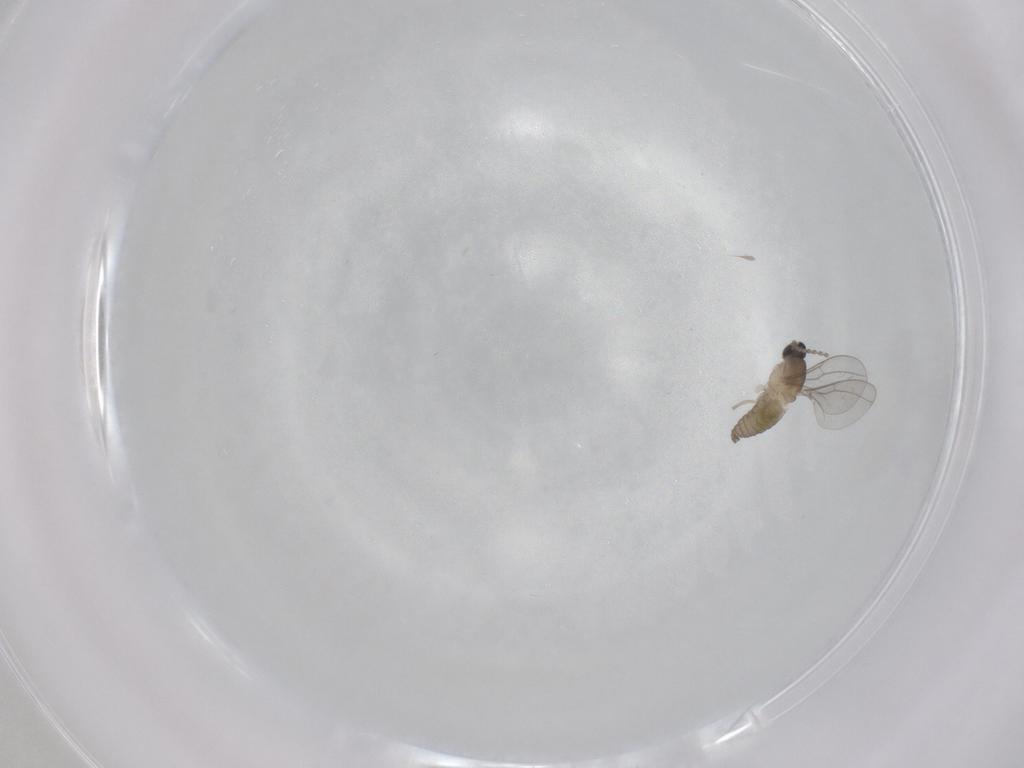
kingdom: Animalia
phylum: Arthropoda
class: Insecta
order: Diptera
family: Cecidomyiidae
